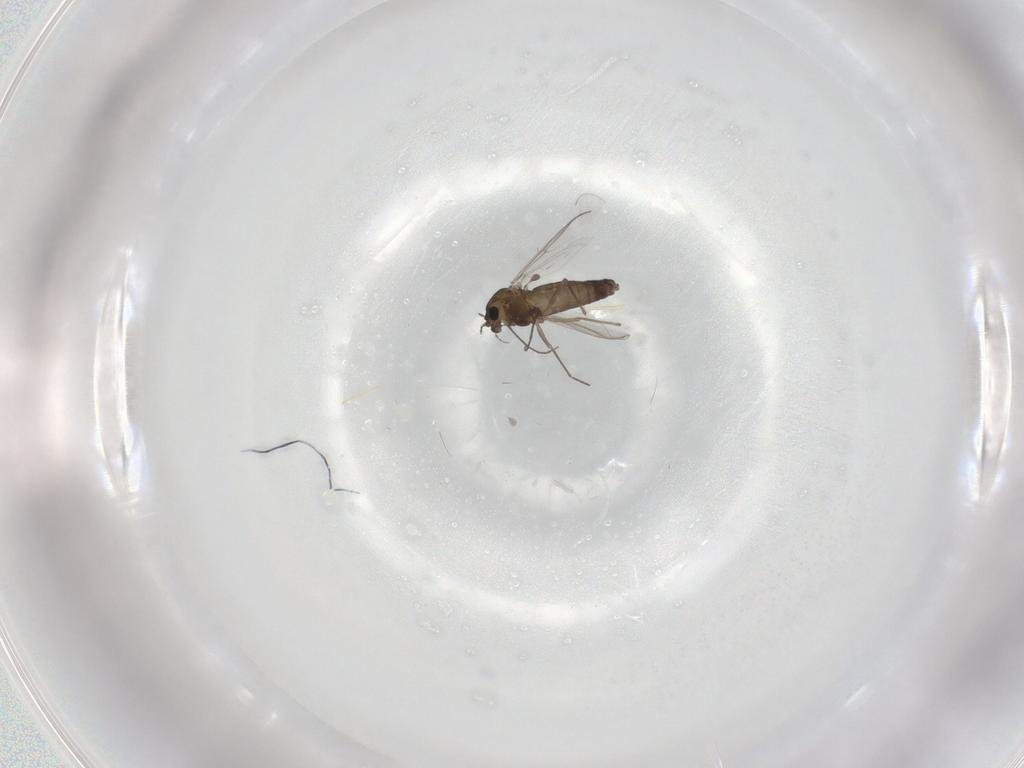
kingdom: Animalia
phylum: Arthropoda
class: Insecta
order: Diptera
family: Chironomidae
